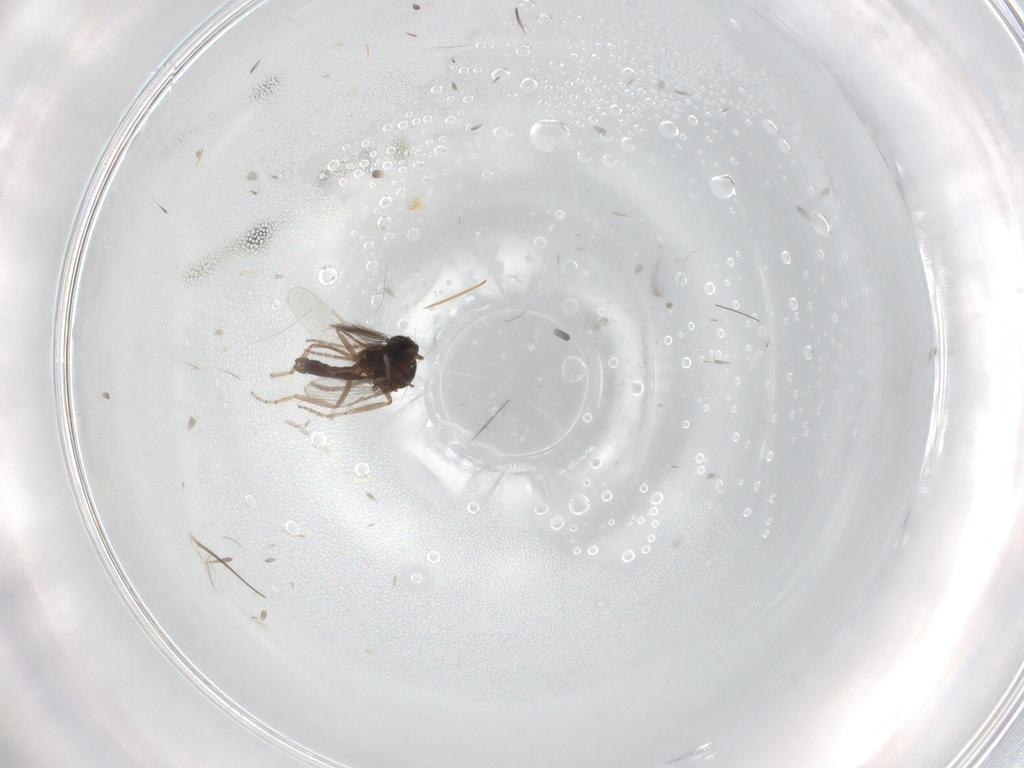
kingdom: Animalia
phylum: Arthropoda
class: Insecta
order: Diptera
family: Ceratopogonidae
